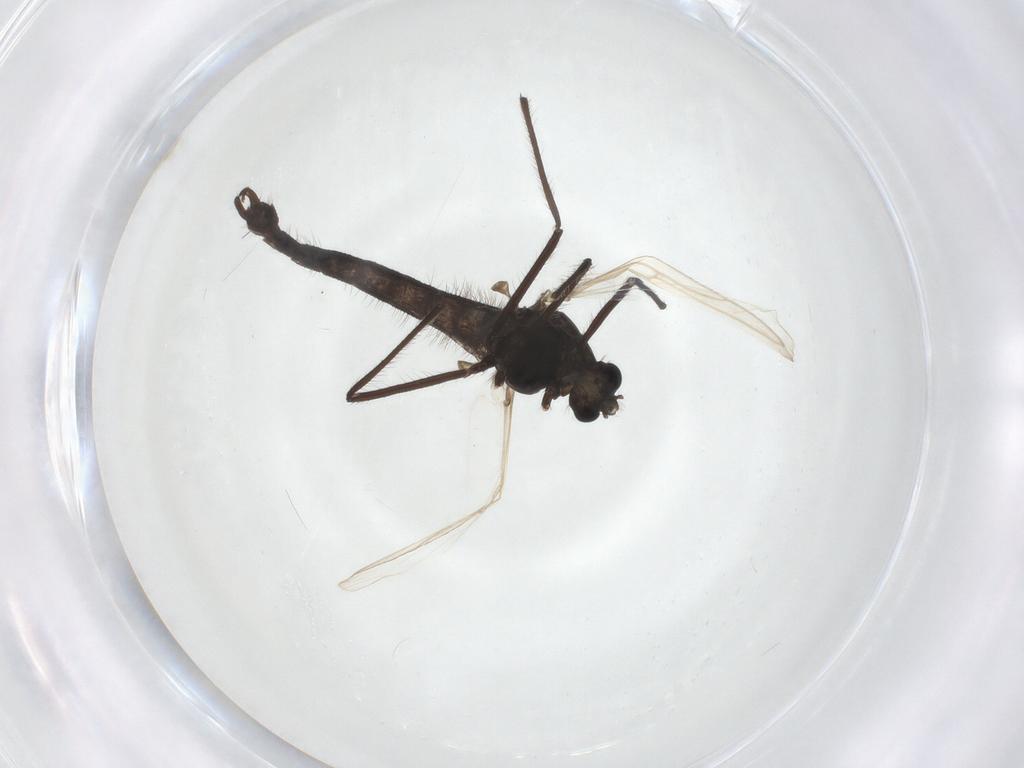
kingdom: Animalia
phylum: Arthropoda
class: Insecta
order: Diptera
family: Chironomidae
